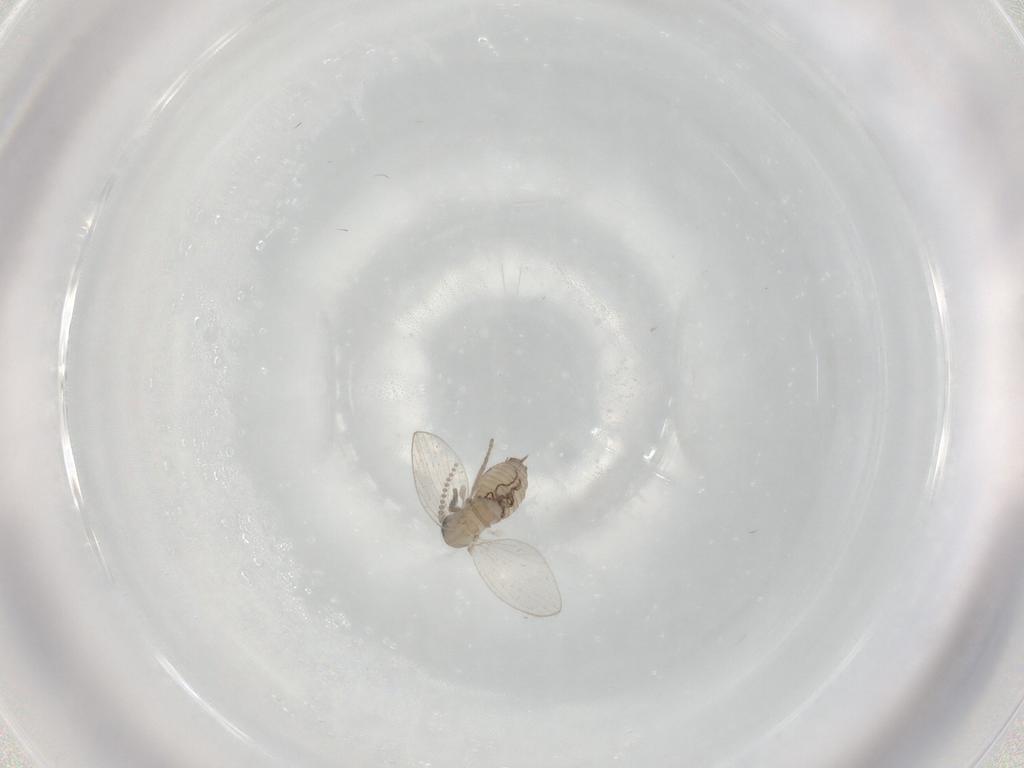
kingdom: Animalia
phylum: Arthropoda
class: Insecta
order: Diptera
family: Psychodidae
